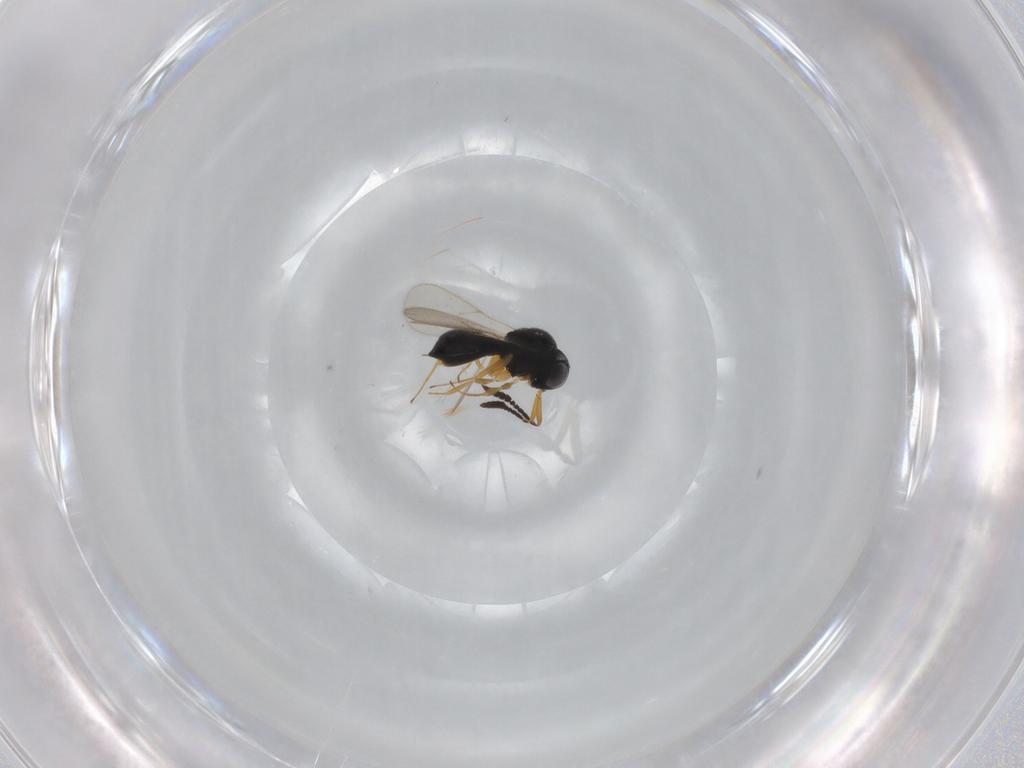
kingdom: Animalia
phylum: Arthropoda
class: Insecta
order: Hymenoptera
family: Scelionidae
